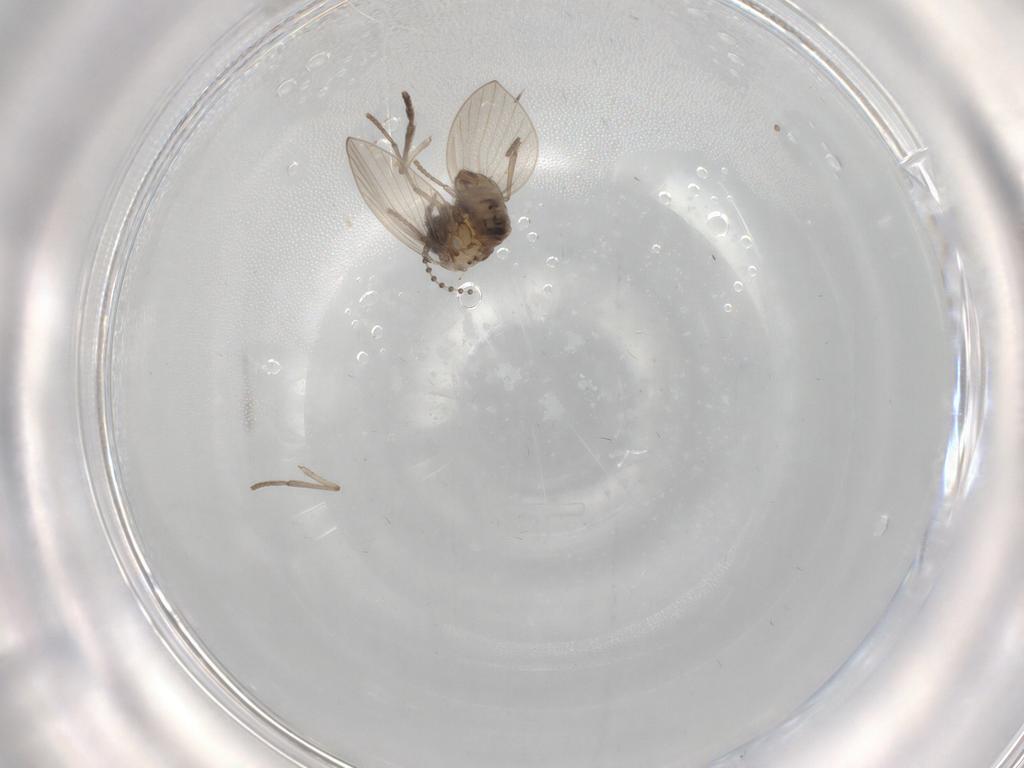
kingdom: Animalia
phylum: Arthropoda
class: Insecta
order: Diptera
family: Psychodidae
